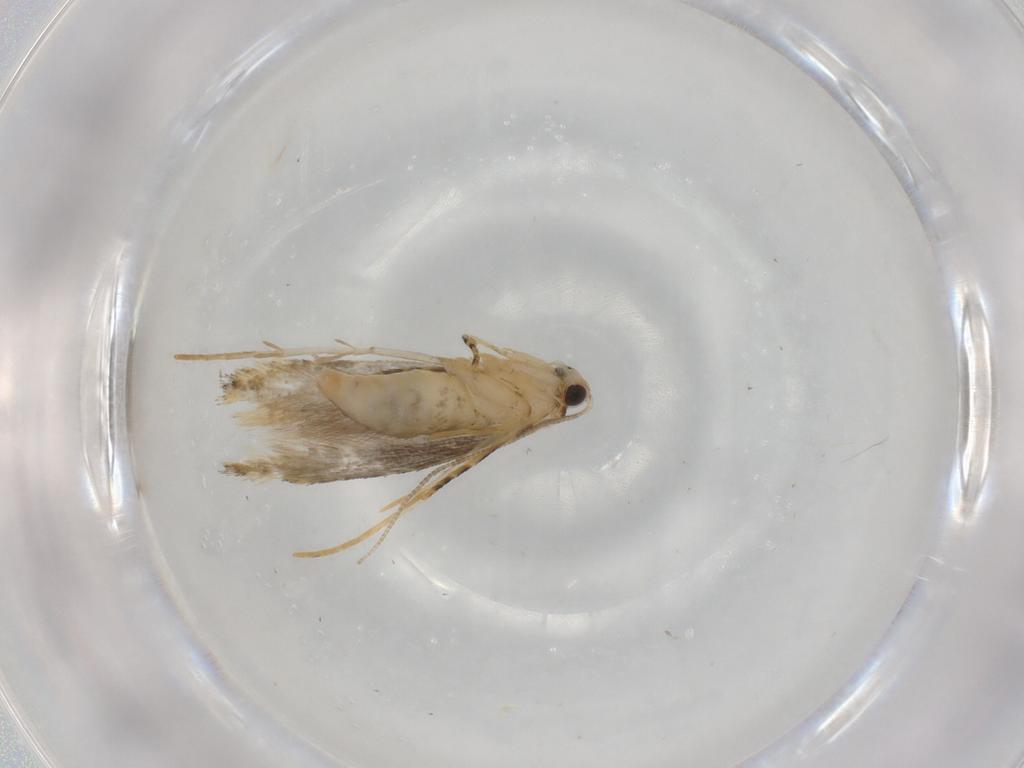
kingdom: Animalia
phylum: Arthropoda
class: Insecta
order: Lepidoptera
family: Tineidae
